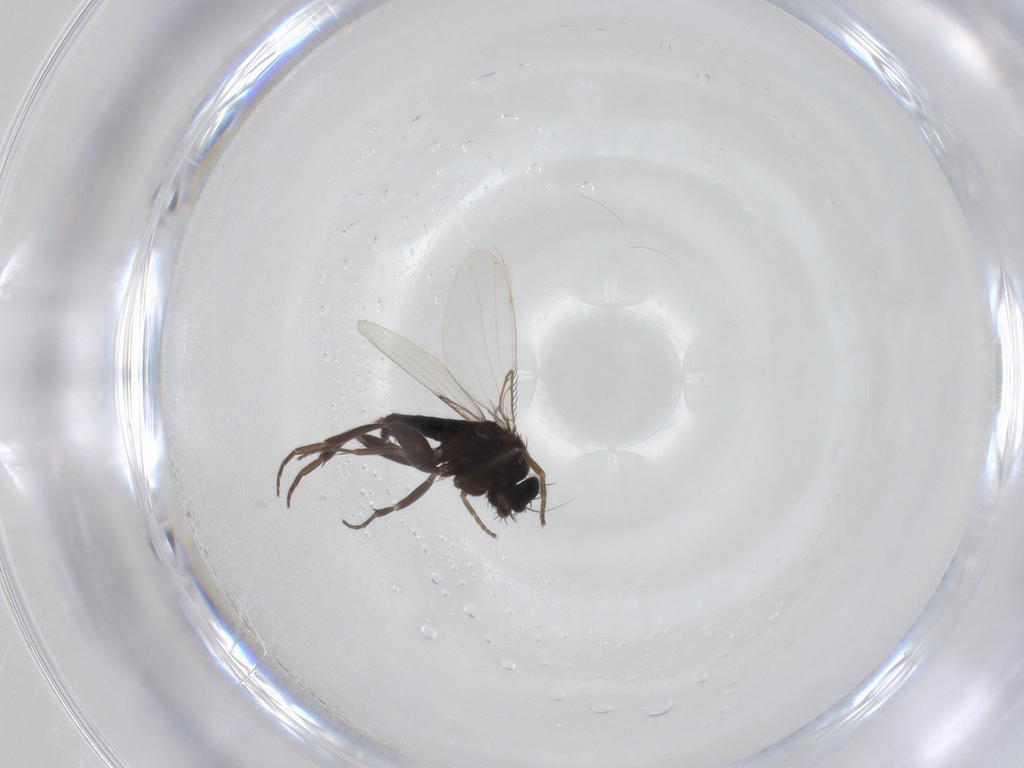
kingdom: Animalia
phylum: Arthropoda
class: Insecta
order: Diptera
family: Phoridae
